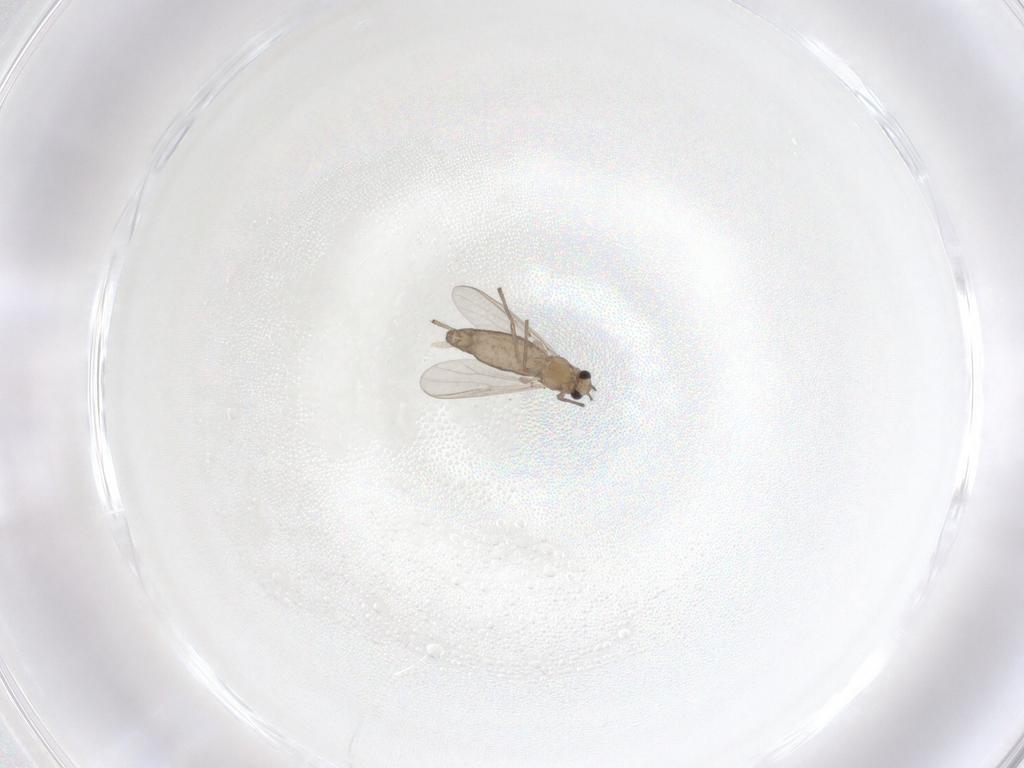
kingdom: Animalia
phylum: Arthropoda
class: Insecta
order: Diptera
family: Chironomidae
